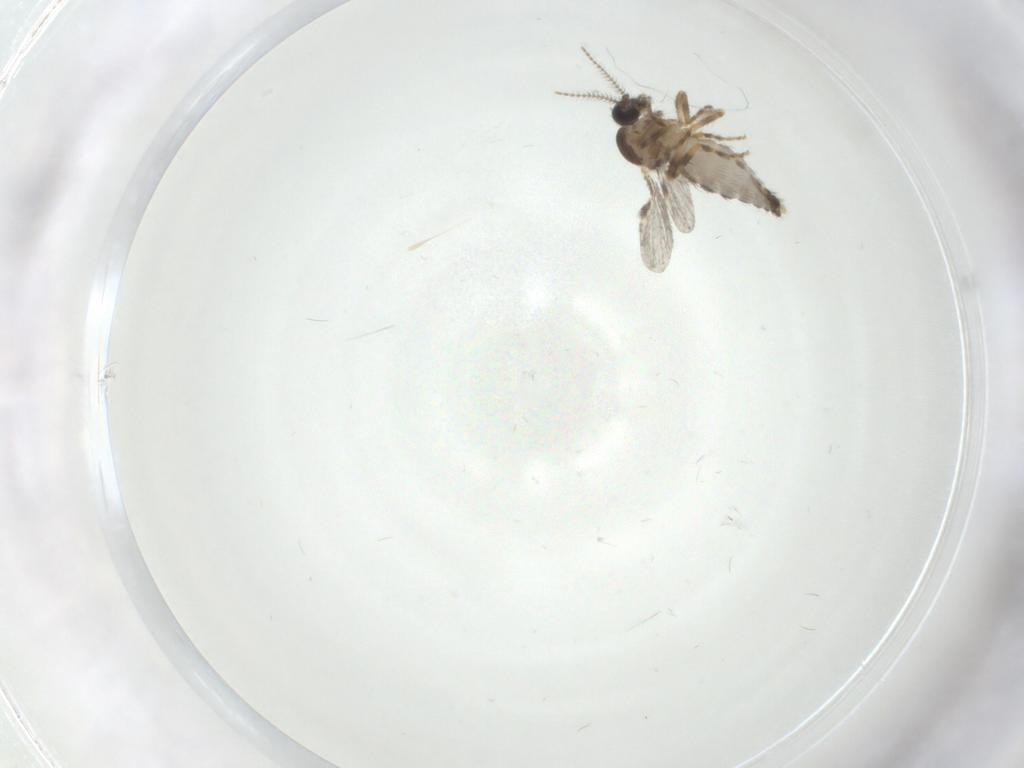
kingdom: Animalia
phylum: Arthropoda
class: Insecta
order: Diptera
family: Ceratopogonidae
